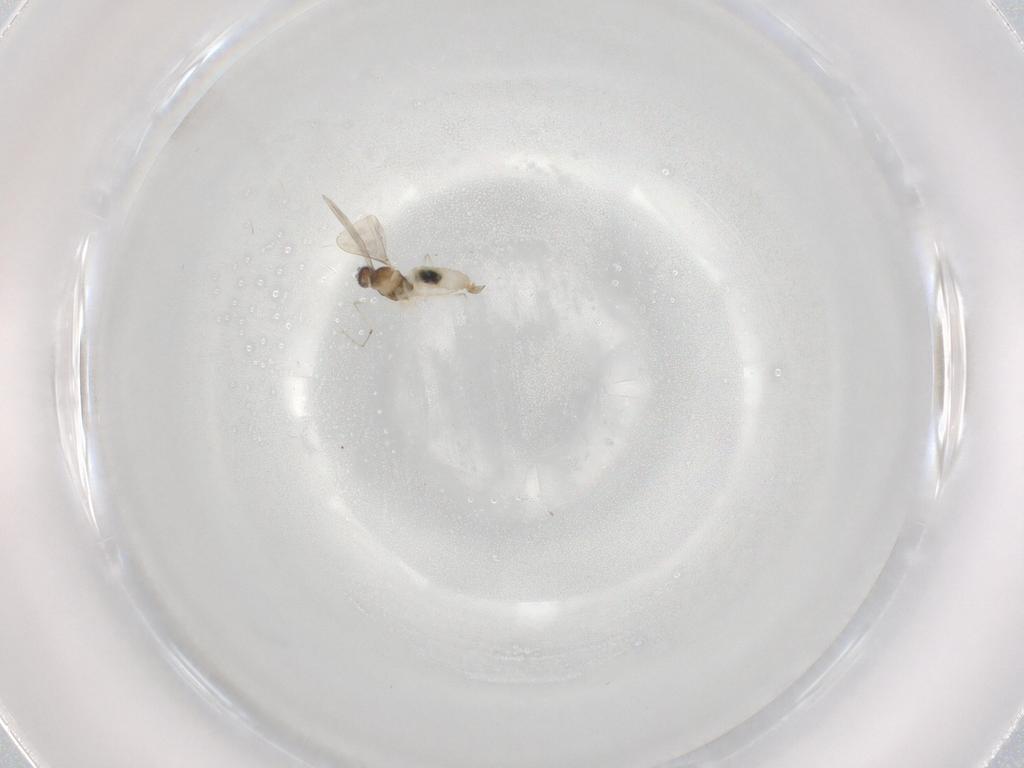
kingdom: Animalia
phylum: Arthropoda
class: Insecta
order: Diptera
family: Cecidomyiidae
